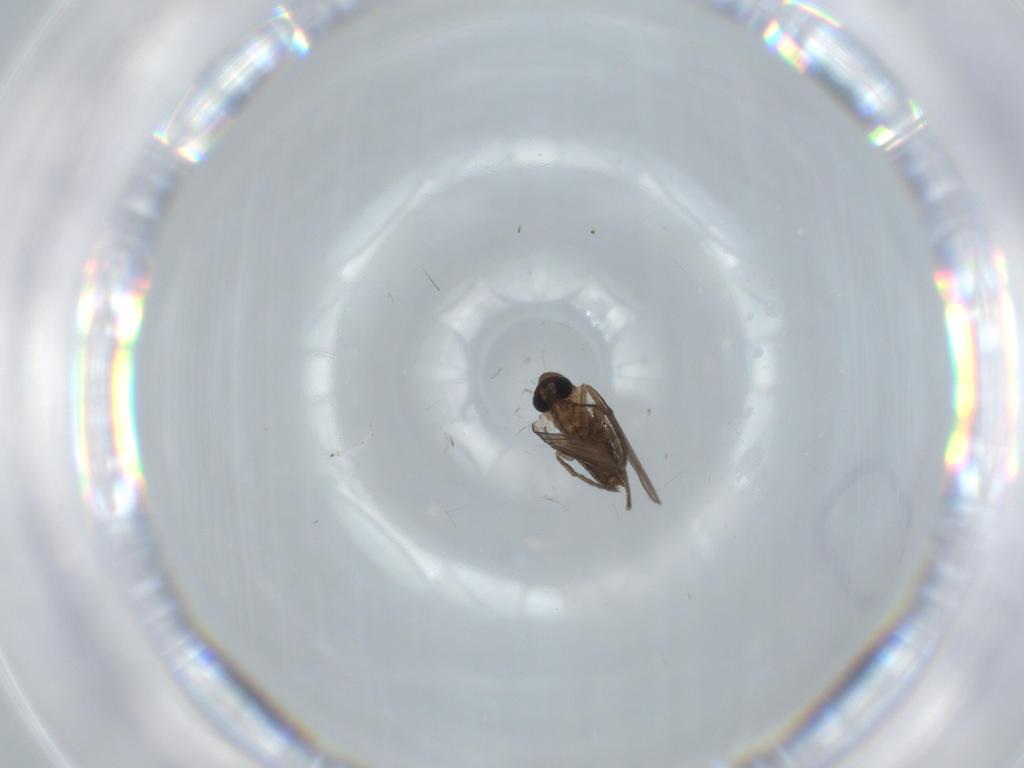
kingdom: Animalia
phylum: Arthropoda
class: Insecta
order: Diptera
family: Psychodidae
